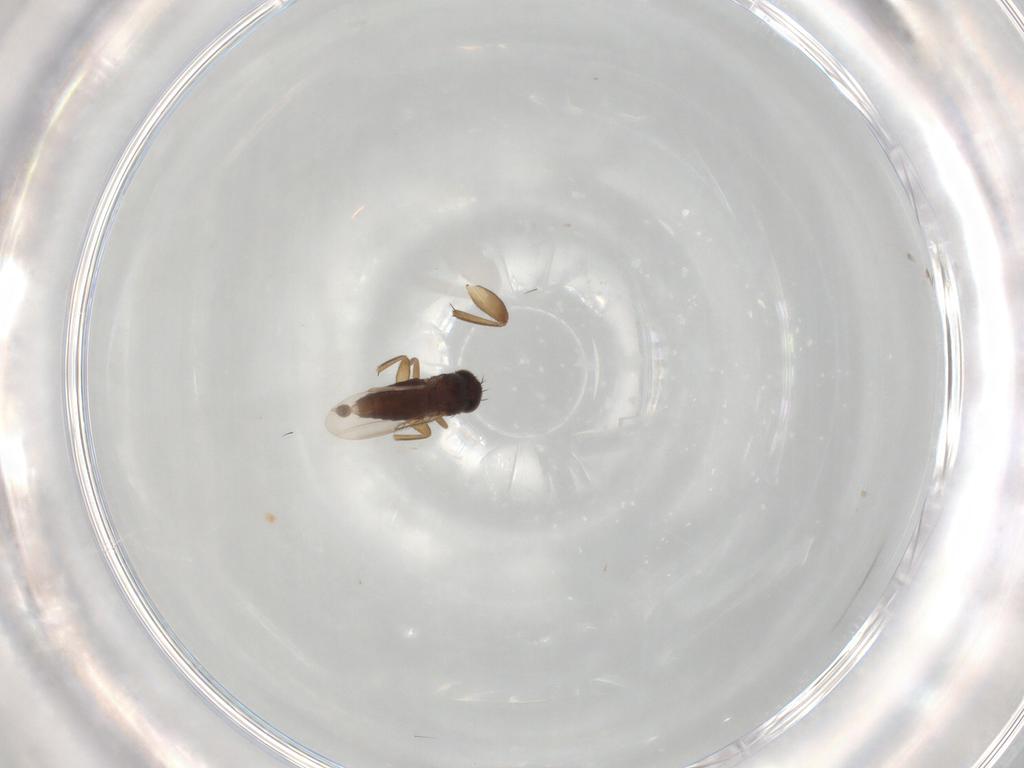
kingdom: Animalia
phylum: Arthropoda
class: Insecta
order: Diptera
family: Phoridae
